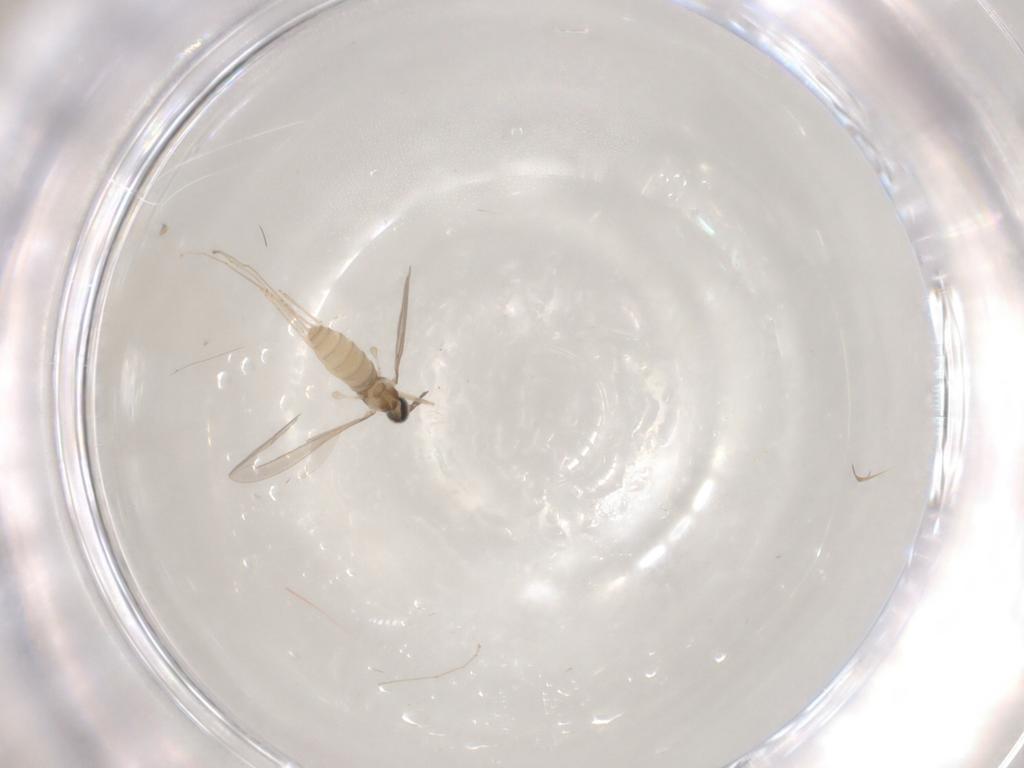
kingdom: Animalia
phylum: Arthropoda
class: Insecta
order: Diptera
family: Cecidomyiidae
